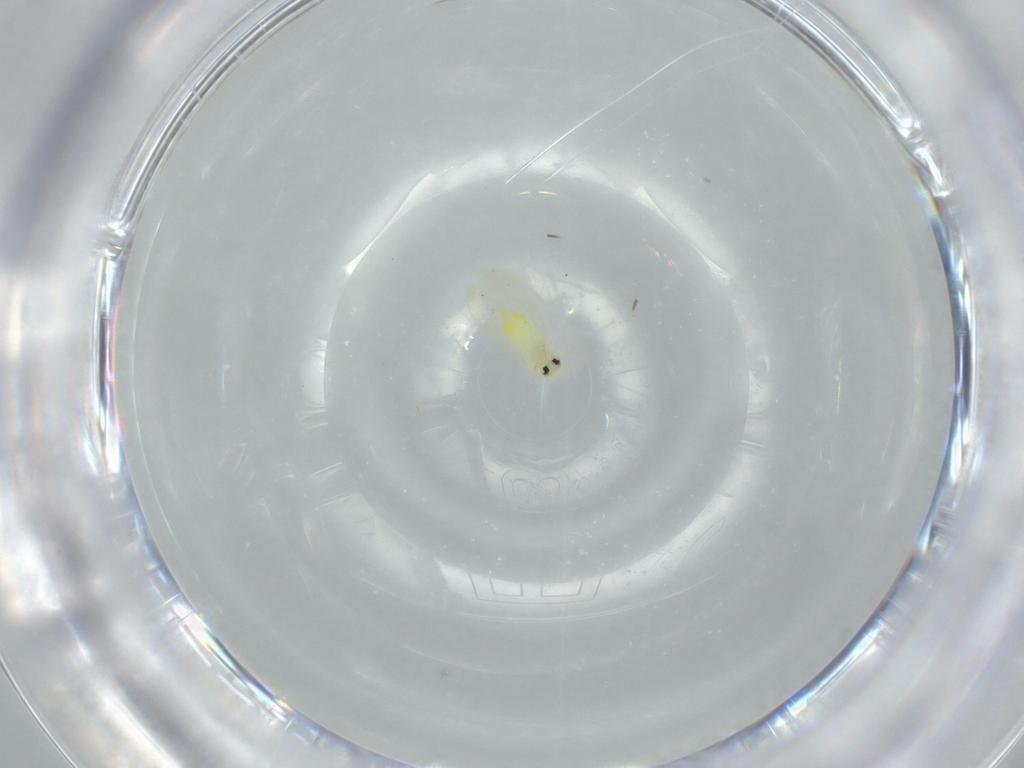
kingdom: Animalia
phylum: Arthropoda
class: Insecta
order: Hemiptera
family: Aleyrodidae
